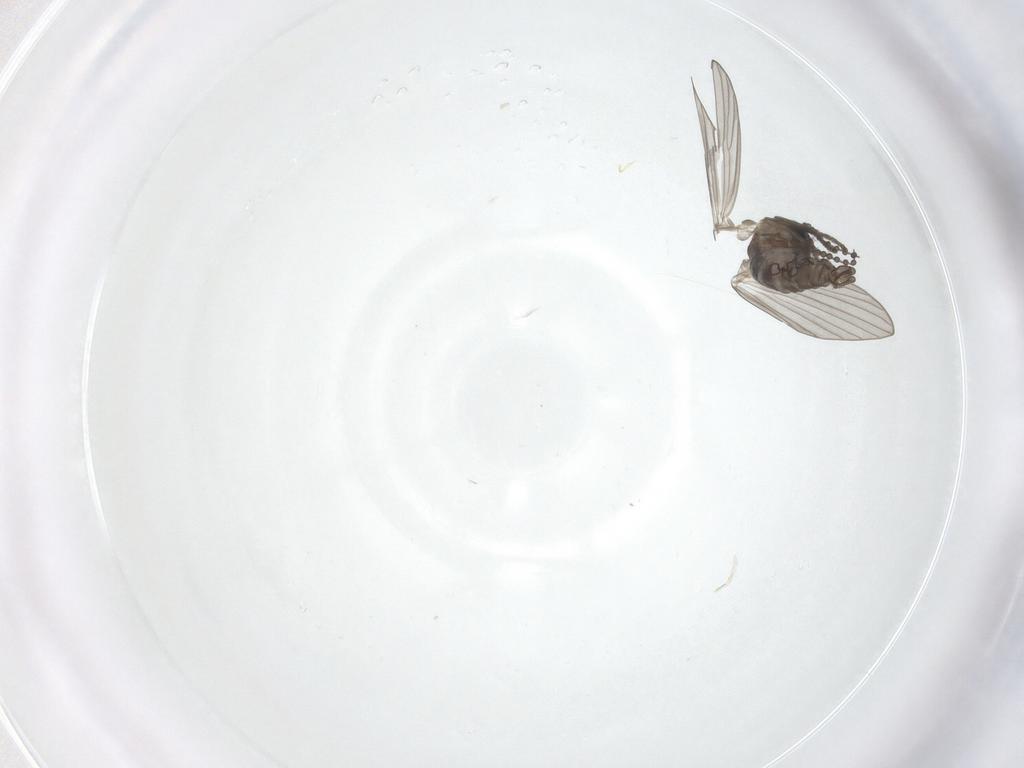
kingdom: Animalia
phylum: Arthropoda
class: Insecta
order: Diptera
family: Psychodidae
